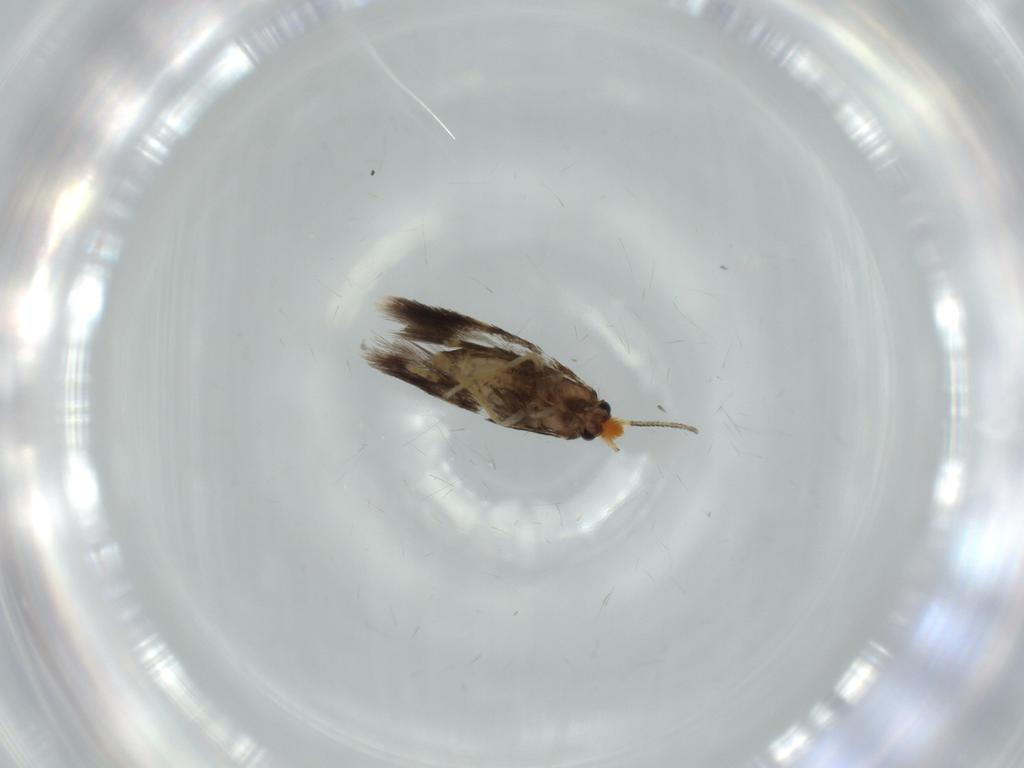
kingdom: Animalia
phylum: Arthropoda
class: Insecta
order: Lepidoptera
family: Nepticulidae
